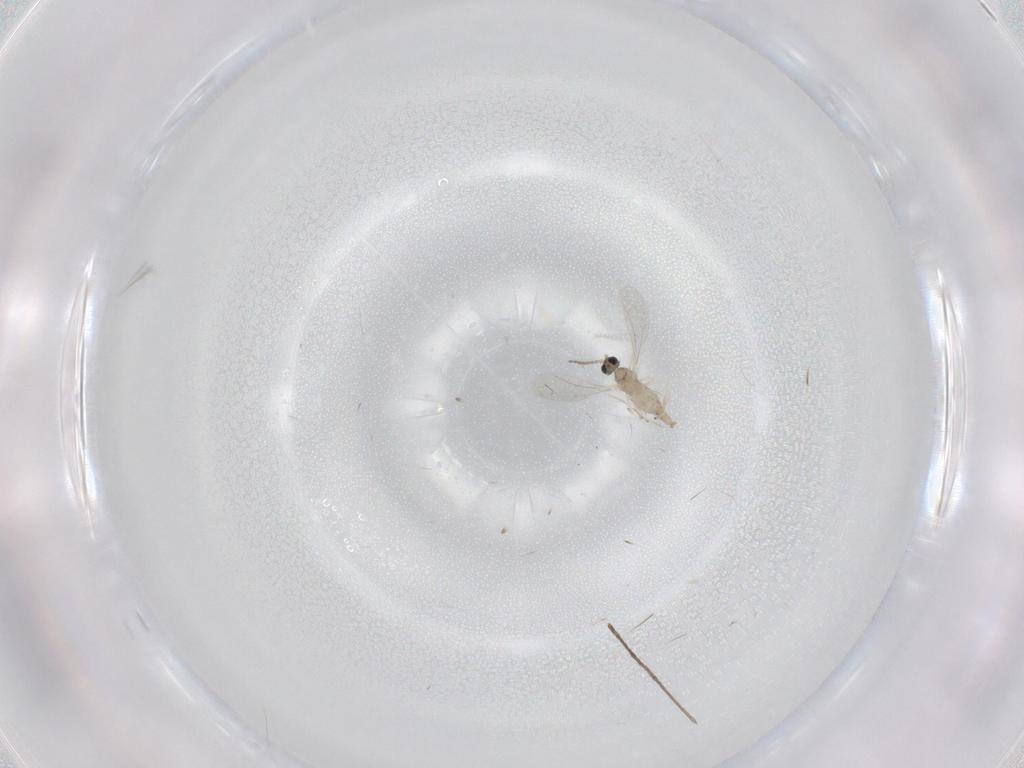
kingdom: Animalia
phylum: Arthropoda
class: Insecta
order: Diptera
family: Cecidomyiidae
